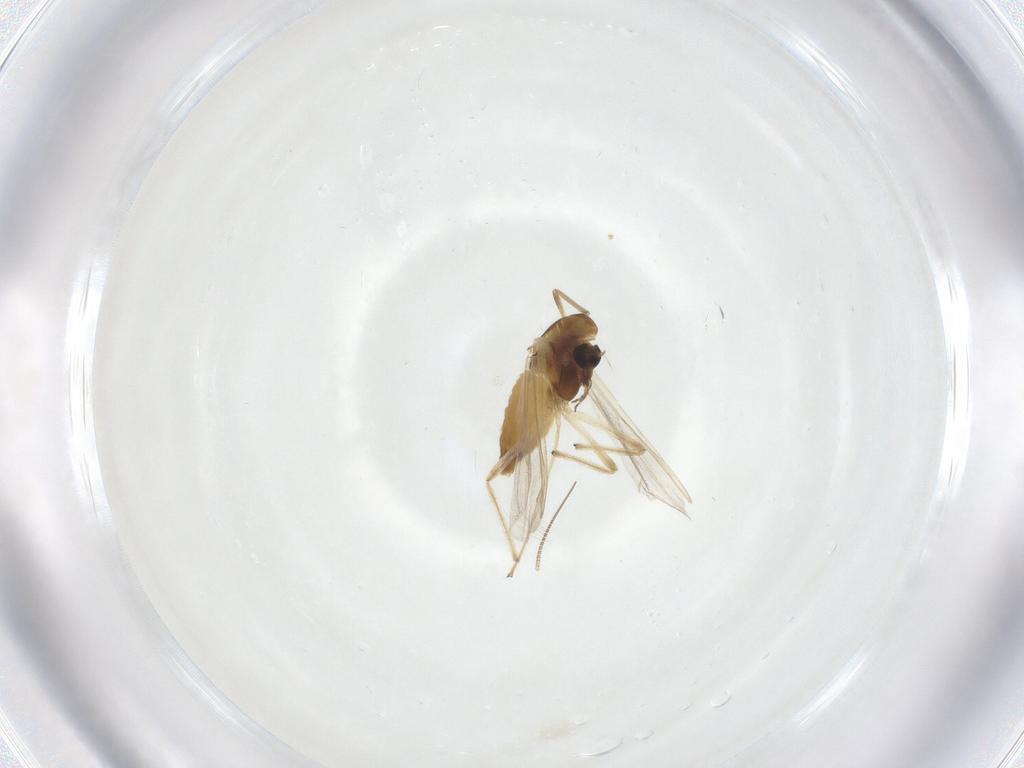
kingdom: Animalia
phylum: Arthropoda
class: Insecta
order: Diptera
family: Chironomidae
